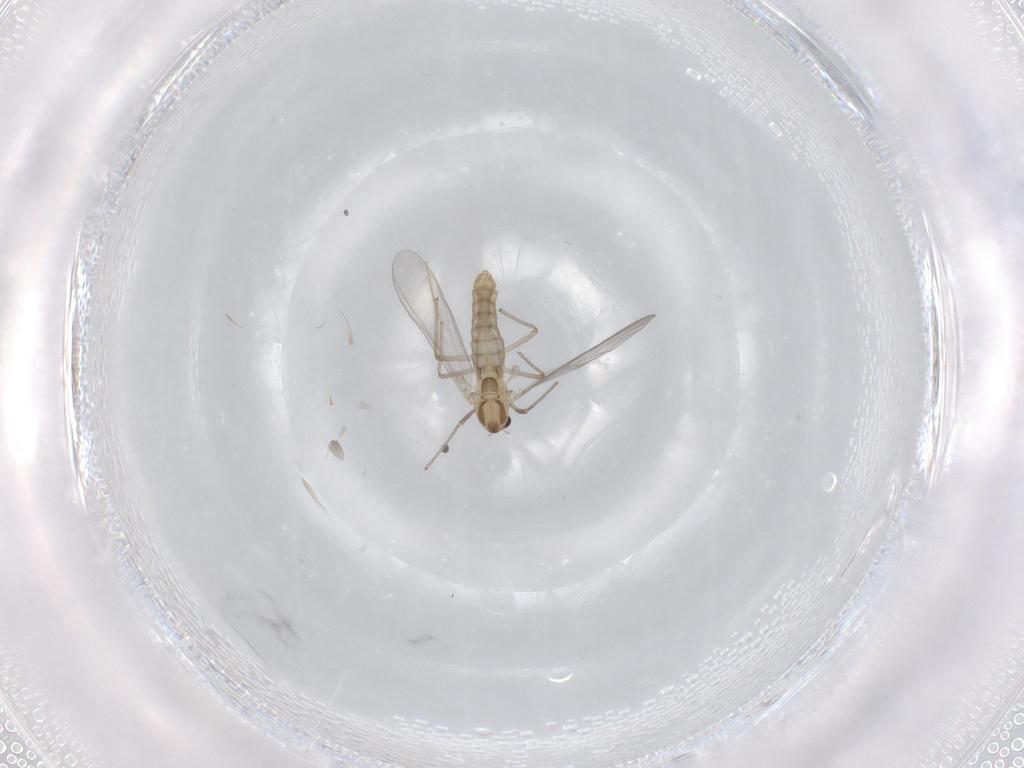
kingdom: Animalia
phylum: Arthropoda
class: Insecta
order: Diptera
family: Chironomidae
